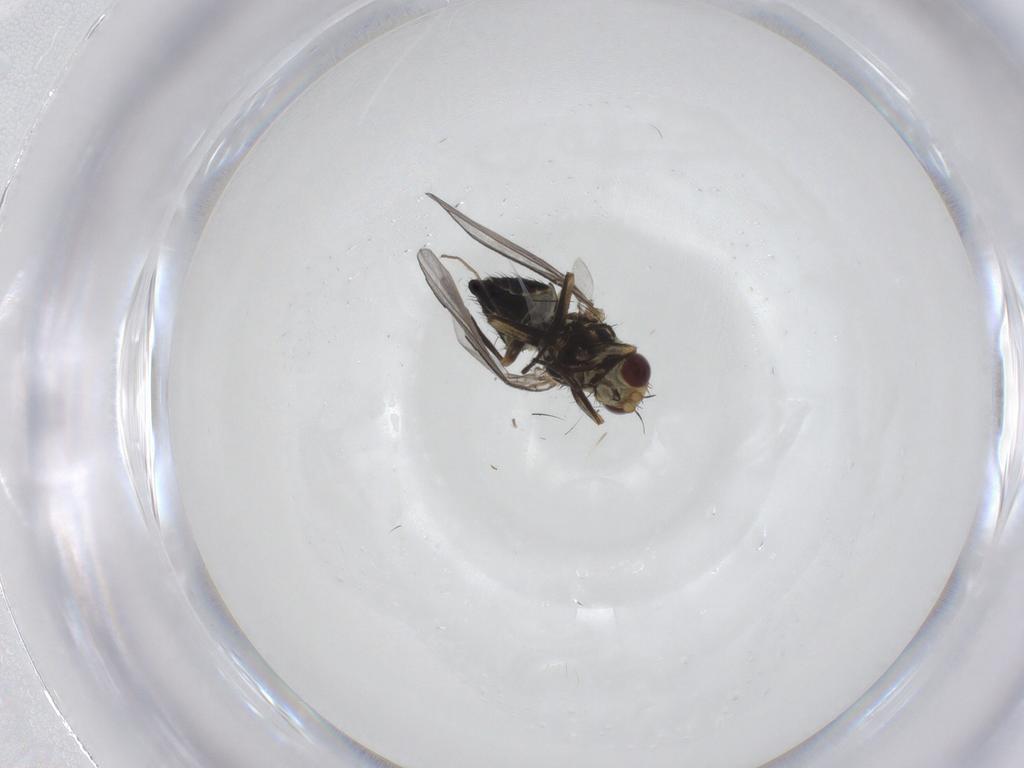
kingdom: Animalia
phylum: Arthropoda
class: Insecta
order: Diptera
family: Agromyzidae
